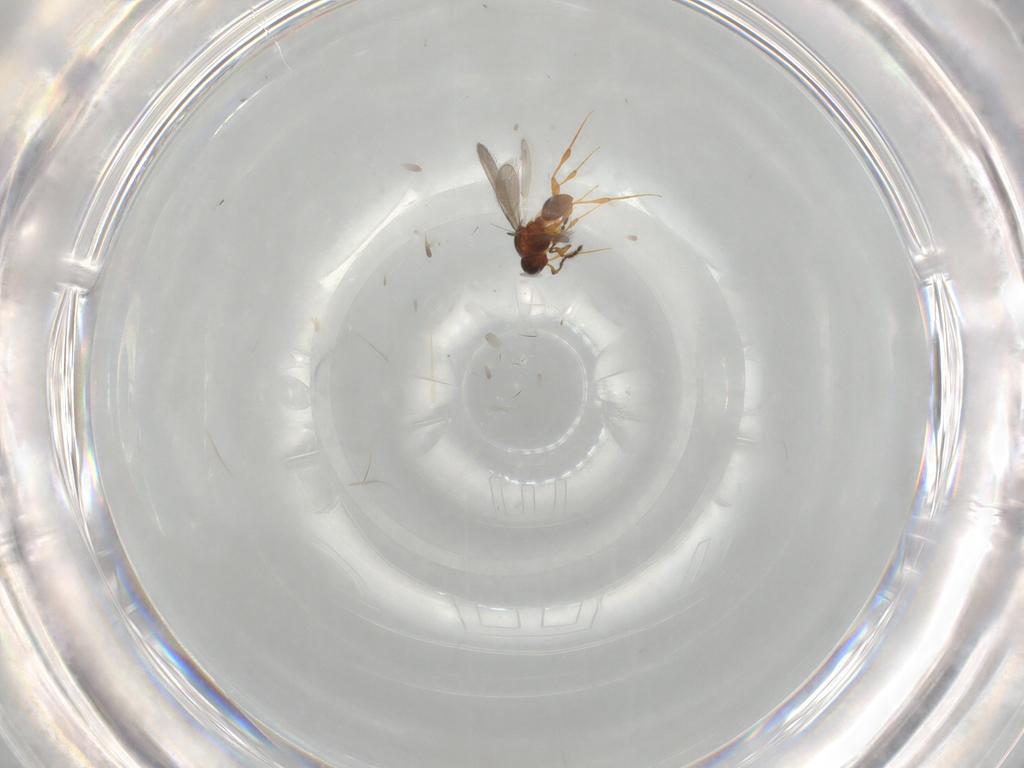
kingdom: Animalia
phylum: Arthropoda
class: Insecta
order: Hymenoptera
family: Platygastridae
